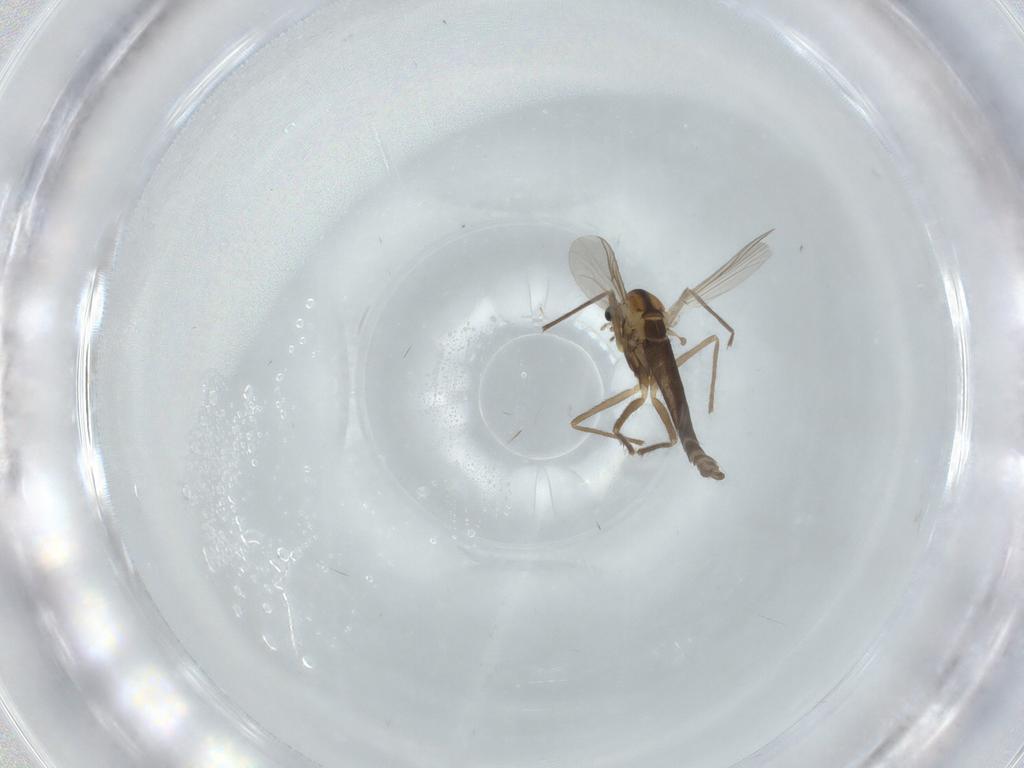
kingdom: Animalia
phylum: Arthropoda
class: Insecta
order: Diptera
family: Chironomidae
